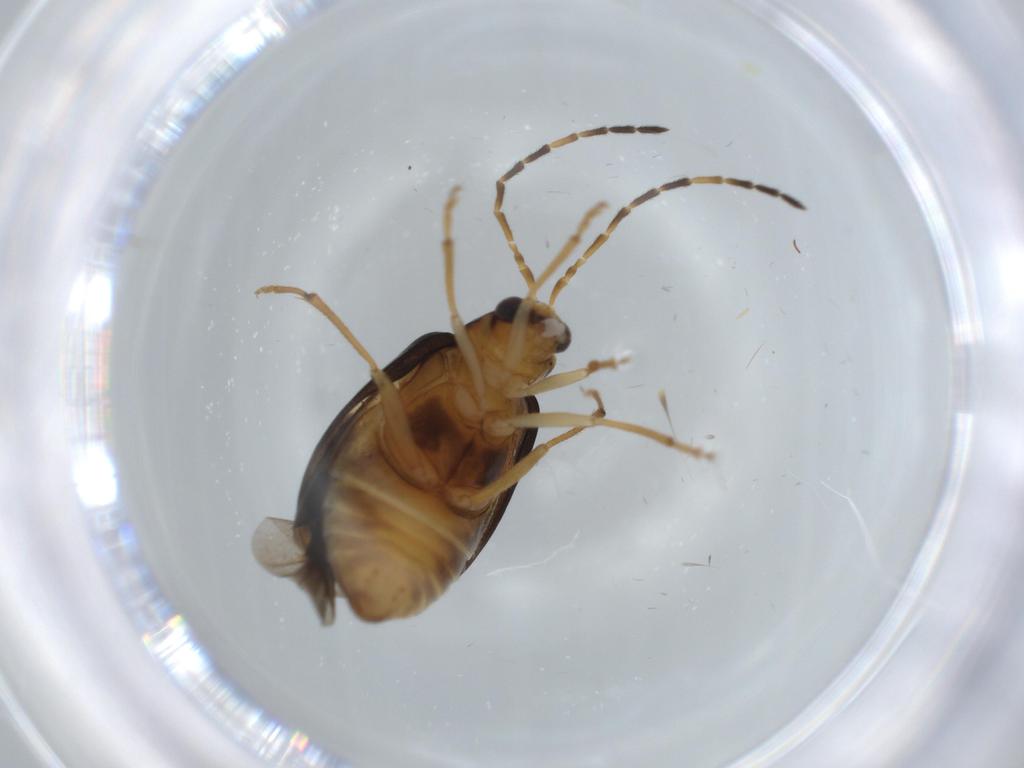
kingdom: Animalia
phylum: Arthropoda
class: Insecta
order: Coleoptera
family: Chrysomelidae
